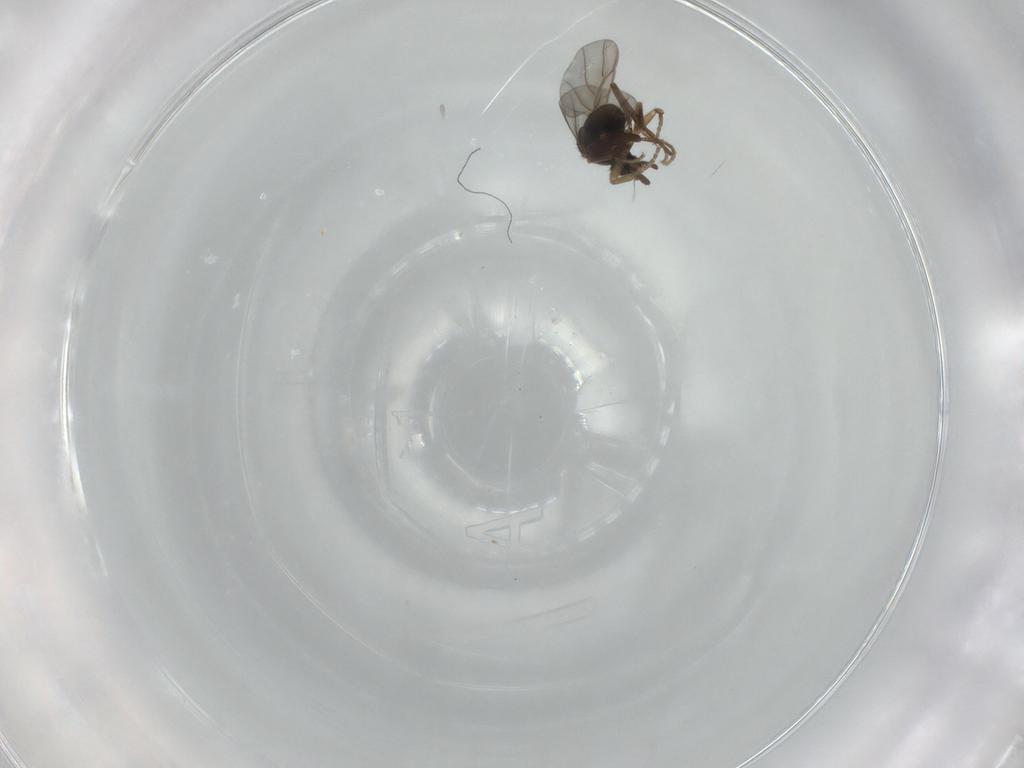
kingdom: Animalia
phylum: Arthropoda
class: Insecta
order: Diptera
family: Phoridae
